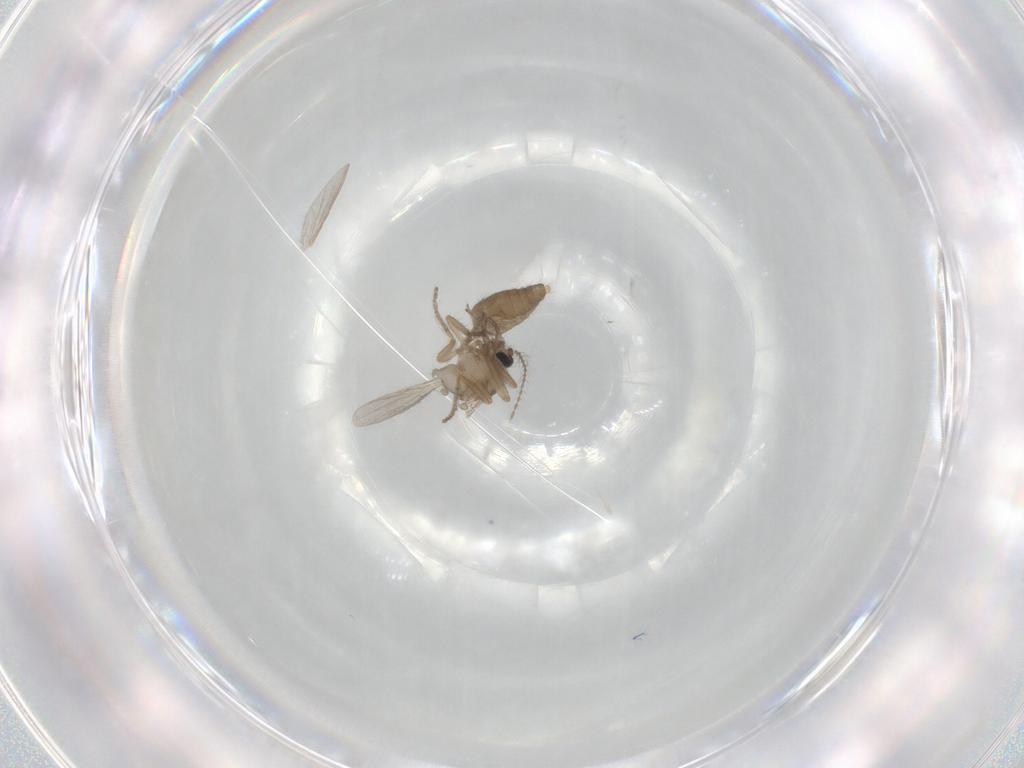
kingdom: Animalia
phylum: Arthropoda
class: Insecta
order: Diptera
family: Ceratopogonidae
